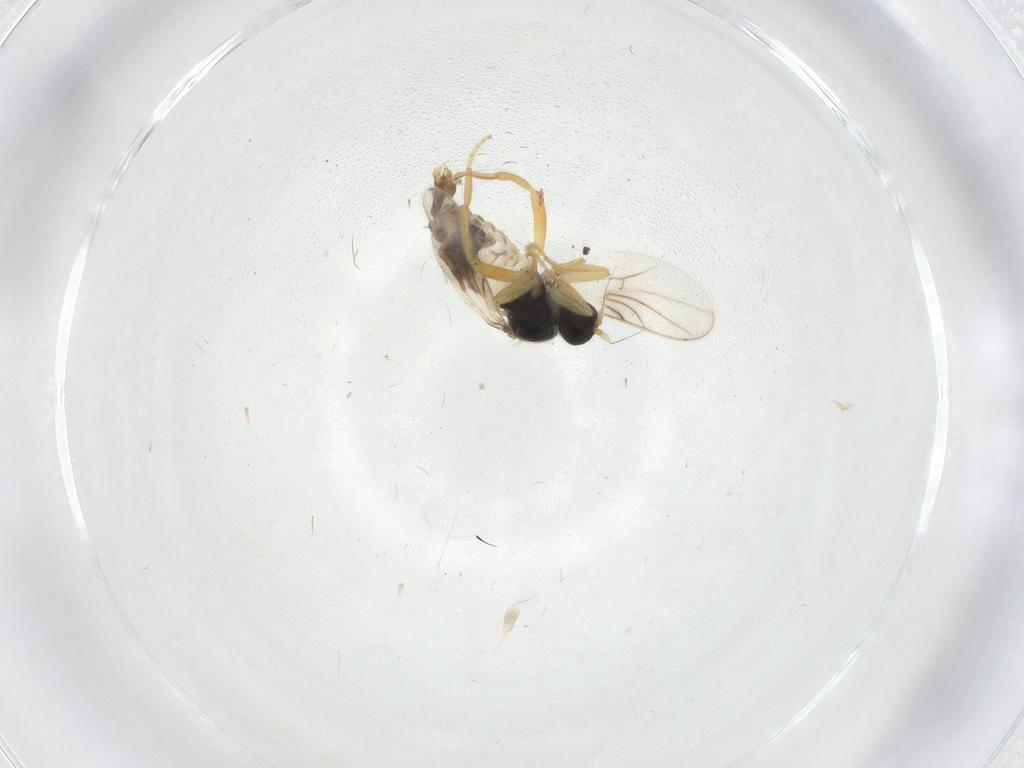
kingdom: Animalia
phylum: Arthropoda
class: Insecta
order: Diptera
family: Hybotidae
